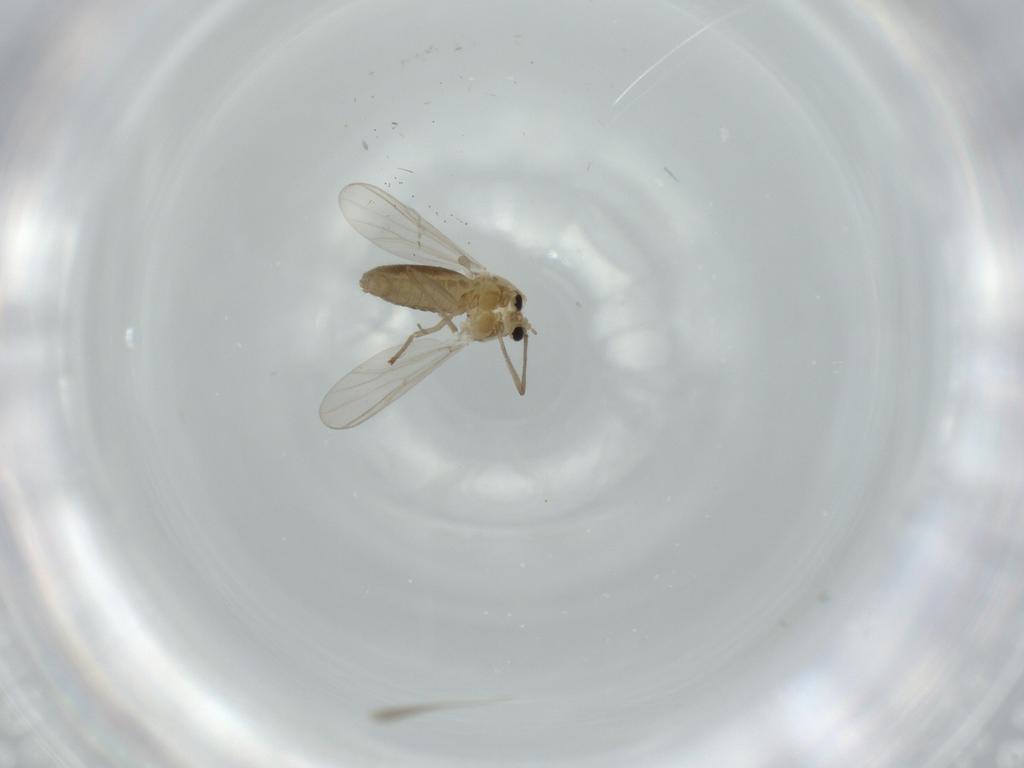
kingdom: Animalia
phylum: Arthropoda
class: Insecta
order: Diptera
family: Chironomidae
